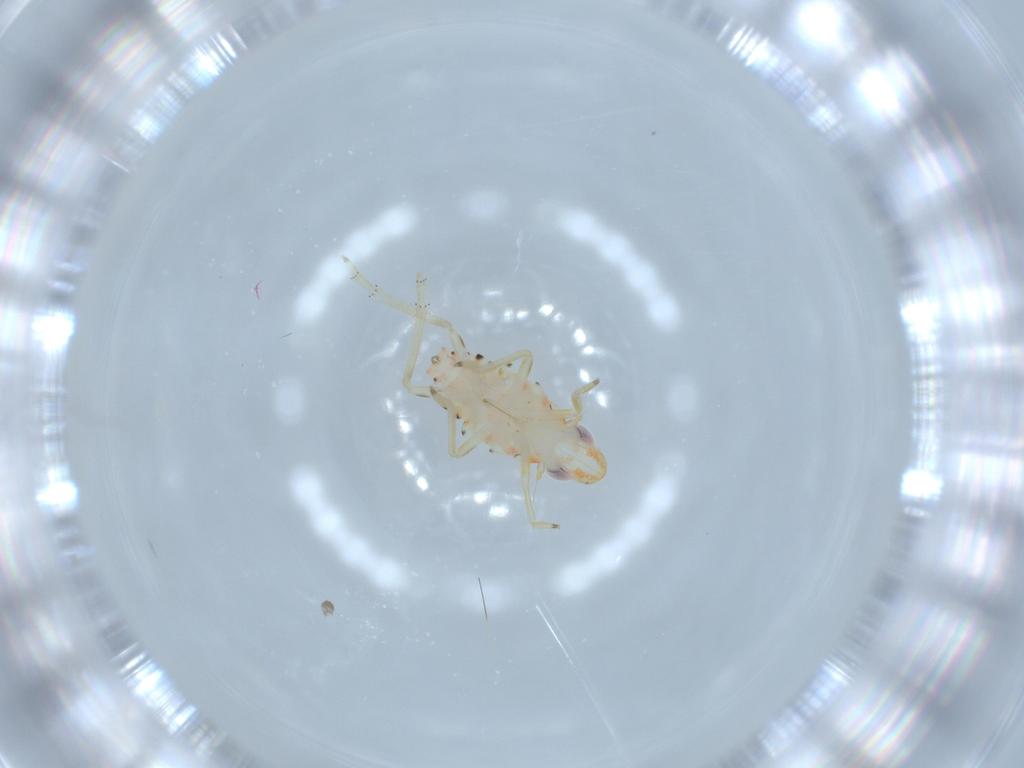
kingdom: Animalia
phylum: Arthropoda
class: Insecta
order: Hemiptera
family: Tropiduchidae
